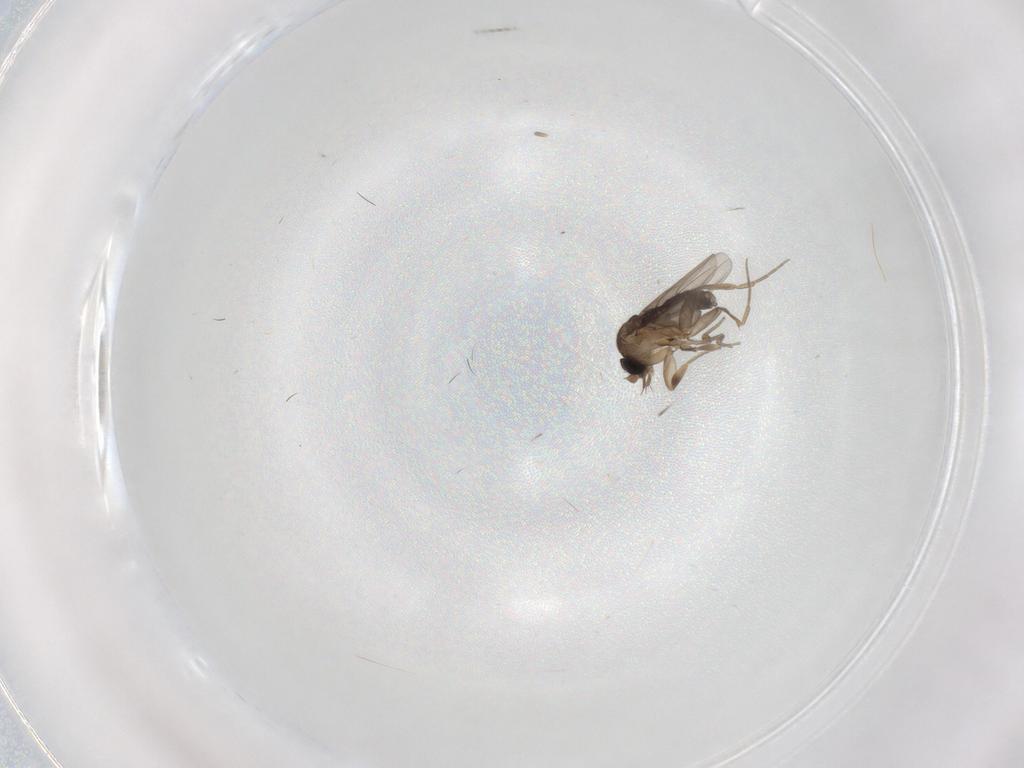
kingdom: Animalia
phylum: Arthropoda
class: Insecta
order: Diptera
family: Phoridae
